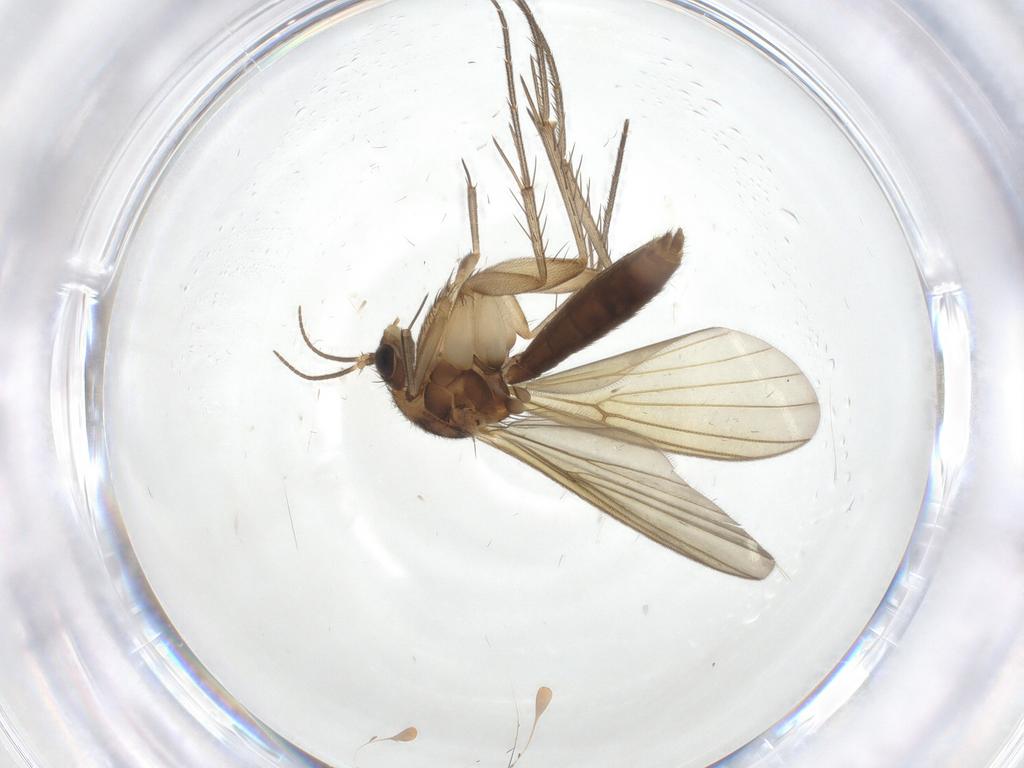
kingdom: Animalia
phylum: Arthropoda
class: Insecta
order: Diptera
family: Mycetophilidae
